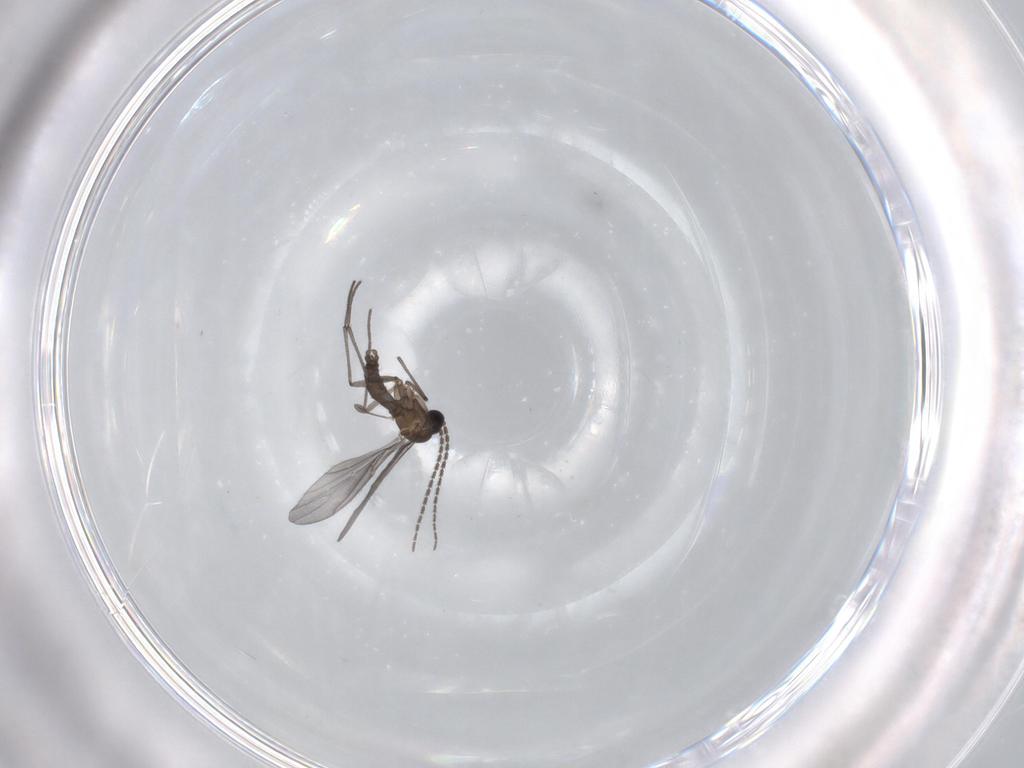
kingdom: Animalia
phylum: Arthropoda
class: Insecta
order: Diptera
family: Sciaridae
